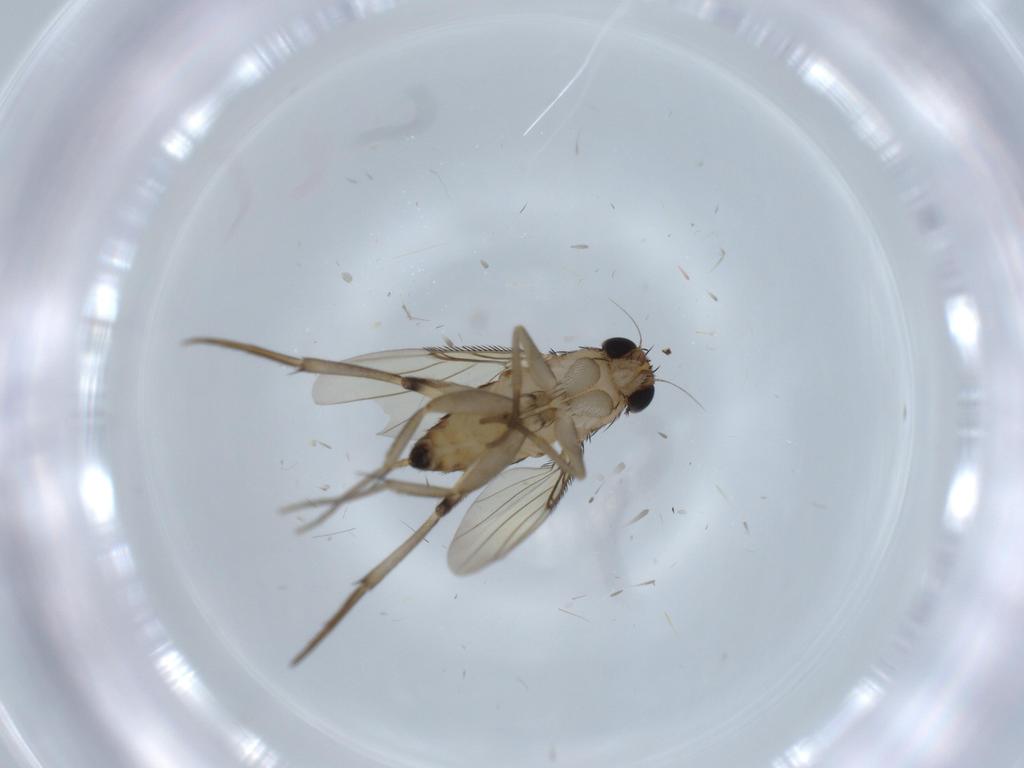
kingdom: Animalia
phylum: Arthropoda
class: Insecta
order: Diptera
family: Phoridae
